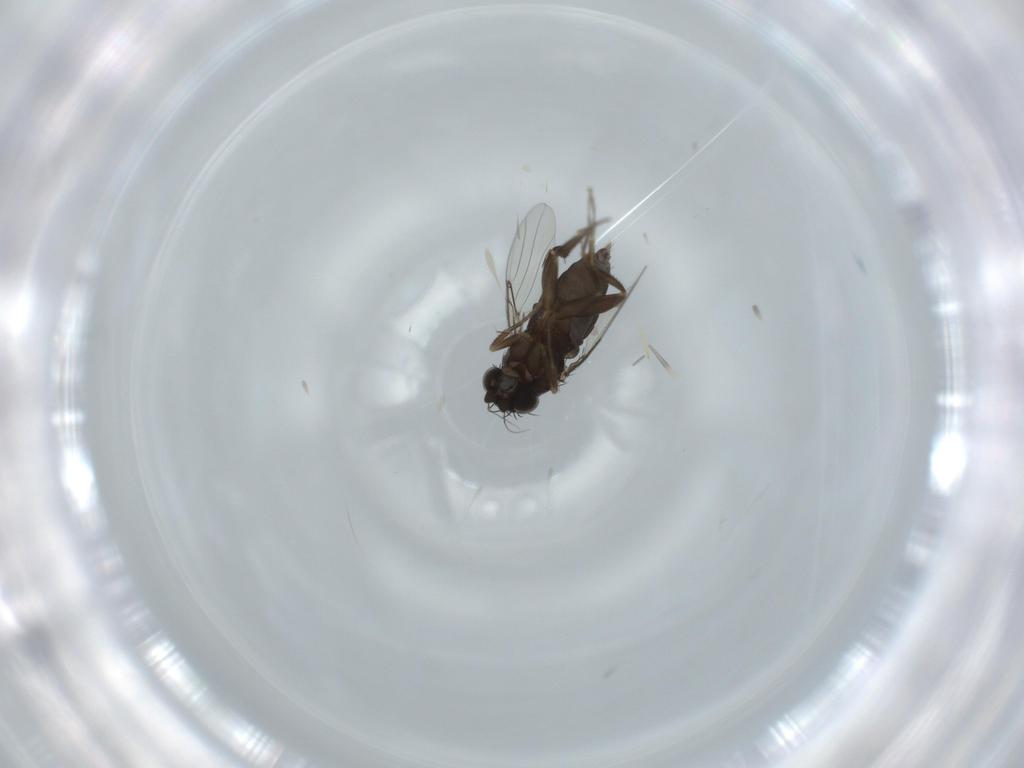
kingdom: Animalia
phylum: Arthropoda
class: Insecta
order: Diptera
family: Phoridae
